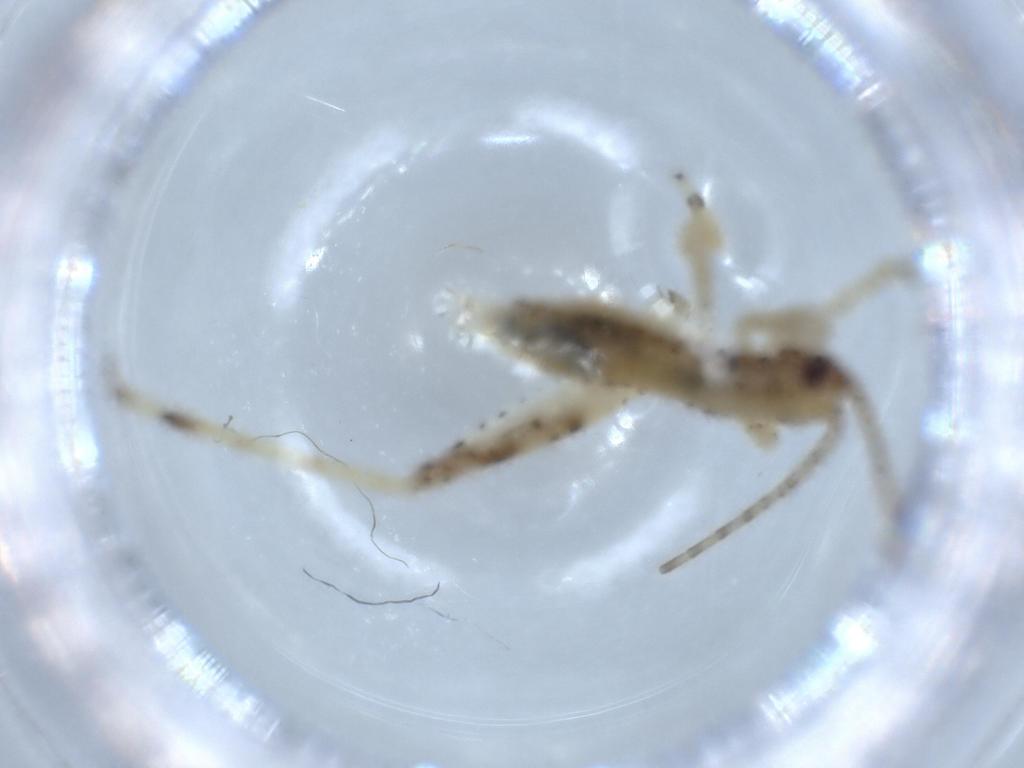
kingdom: Animalia
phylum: Arthropoda
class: Insecta
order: Orthoptera
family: Gryllidae
